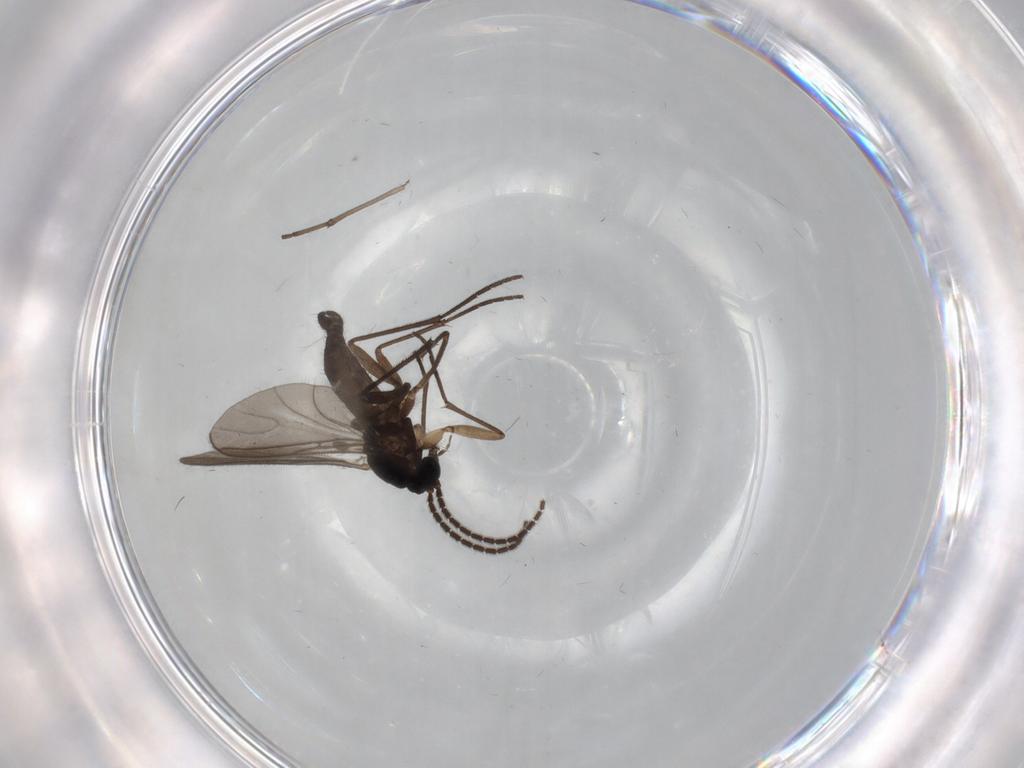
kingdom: Animalia
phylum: Arthropoda
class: Insecta
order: Diptera
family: Sciaridae
